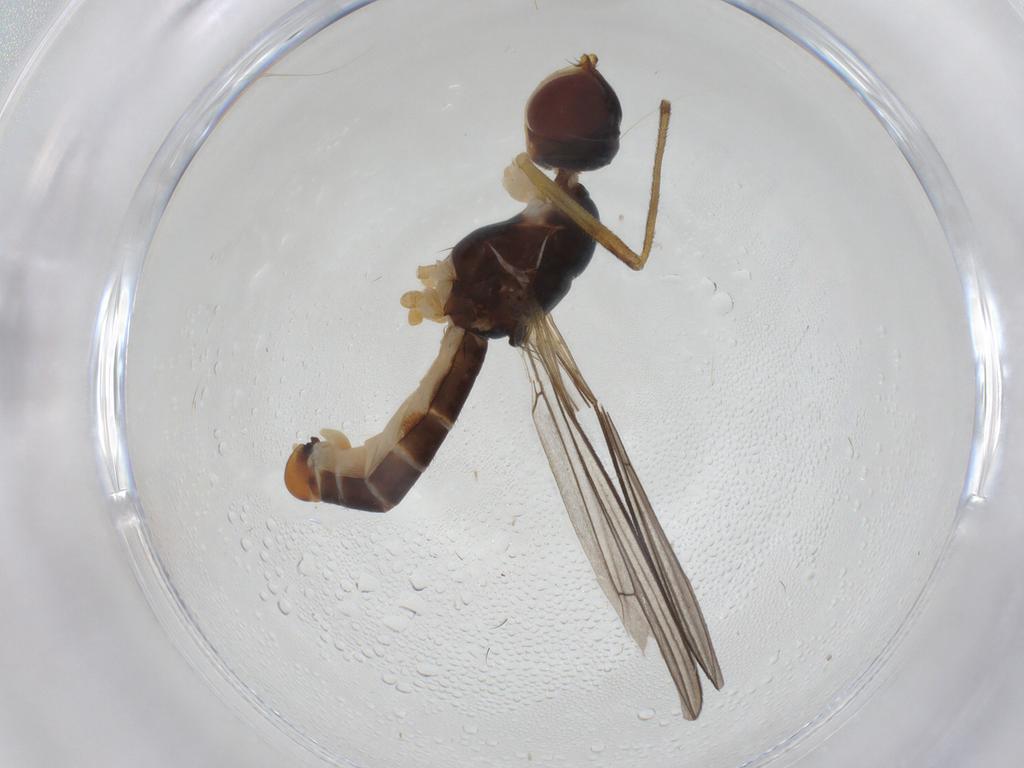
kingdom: Animalia
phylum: Arthropoda
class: Insecta
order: Diptera
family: Micropezidae
